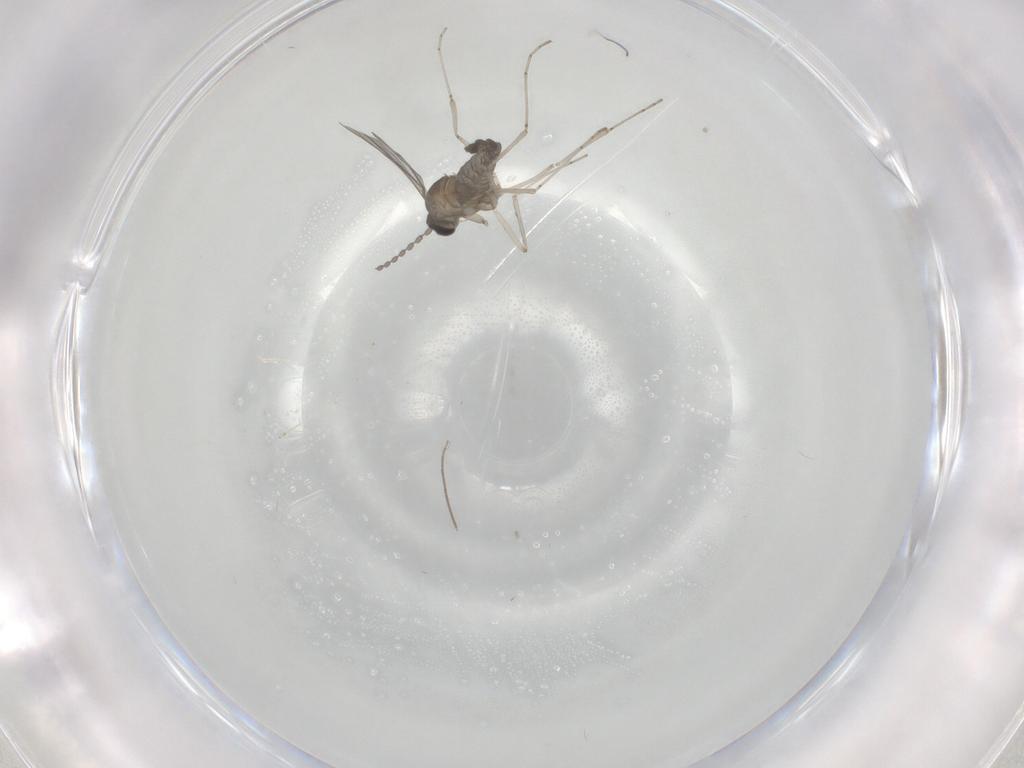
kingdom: Animalia
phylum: Arthropoda
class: Insecta
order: Diptera
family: Cecidomyiidae
